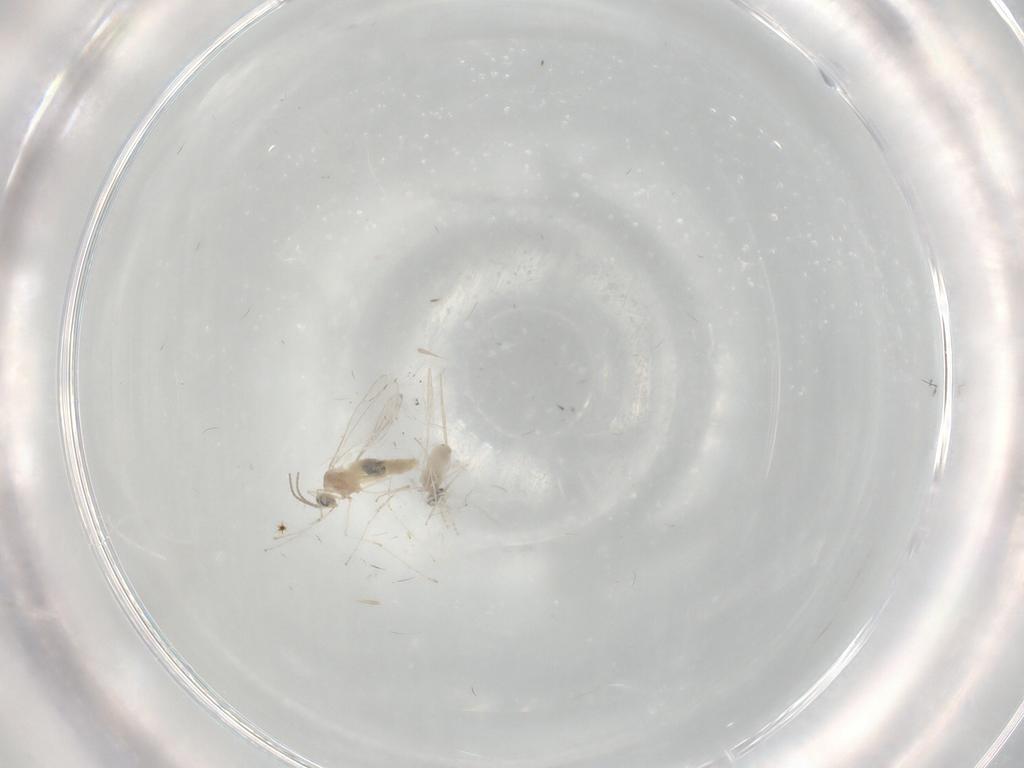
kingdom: Animalia
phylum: Arthropoda
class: Insecta
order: Diptera
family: Chironomidae
